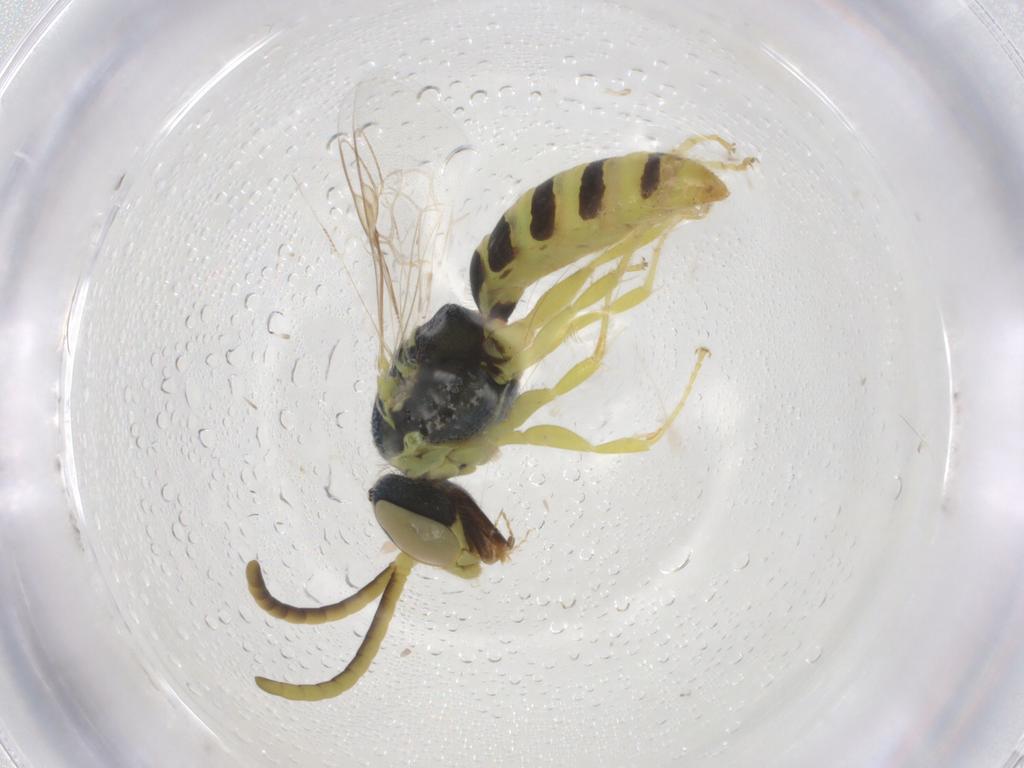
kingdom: Animalia
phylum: Arthropoda
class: Insecta
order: Hymenoptera
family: Halictidae
